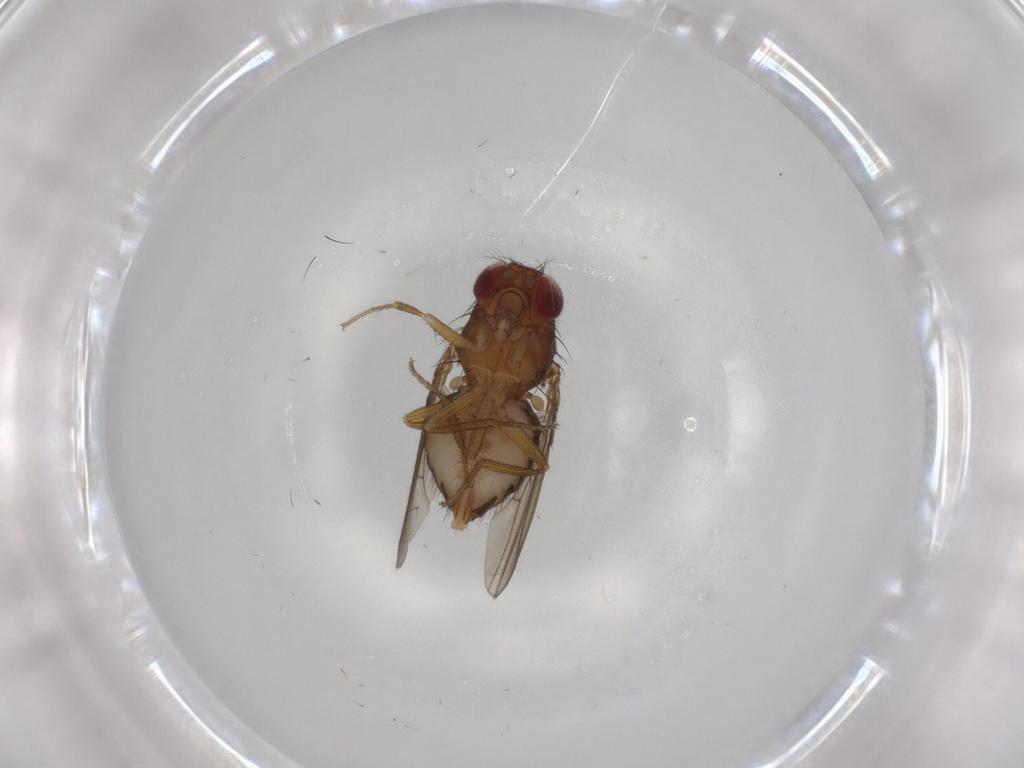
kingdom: Animalia
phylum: Arthropoda
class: Insecta
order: Diptera
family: Drosophilidae
